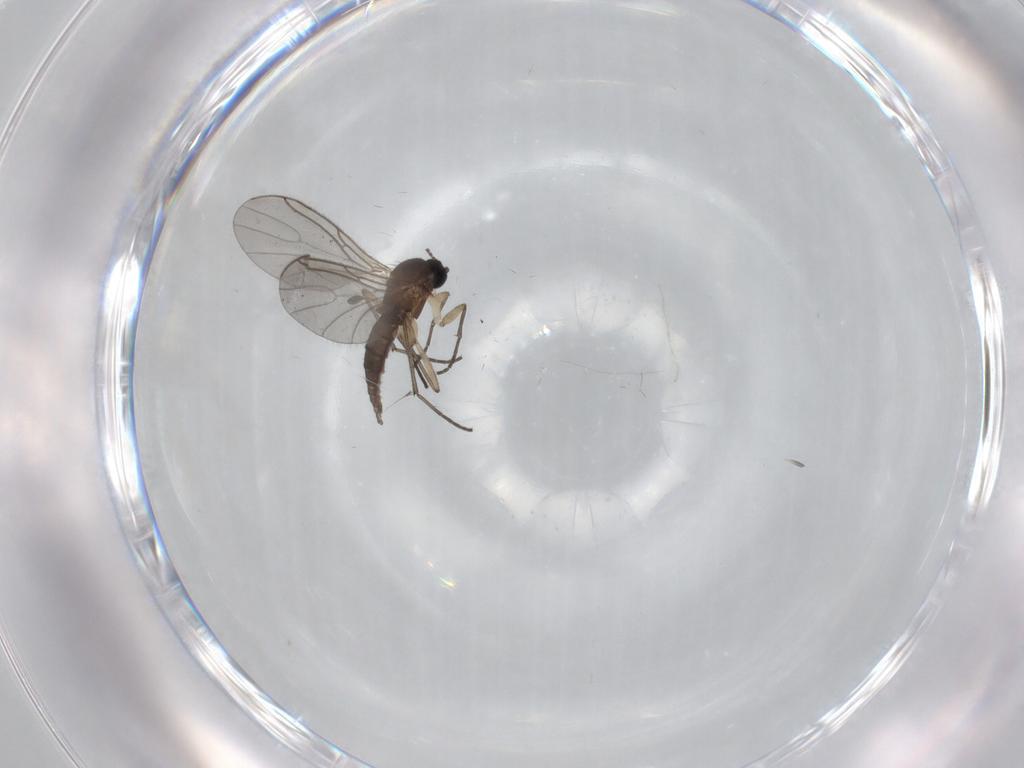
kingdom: Animalia
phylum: Arthropoda
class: Insecta
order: Diptera
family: Sciaridae
